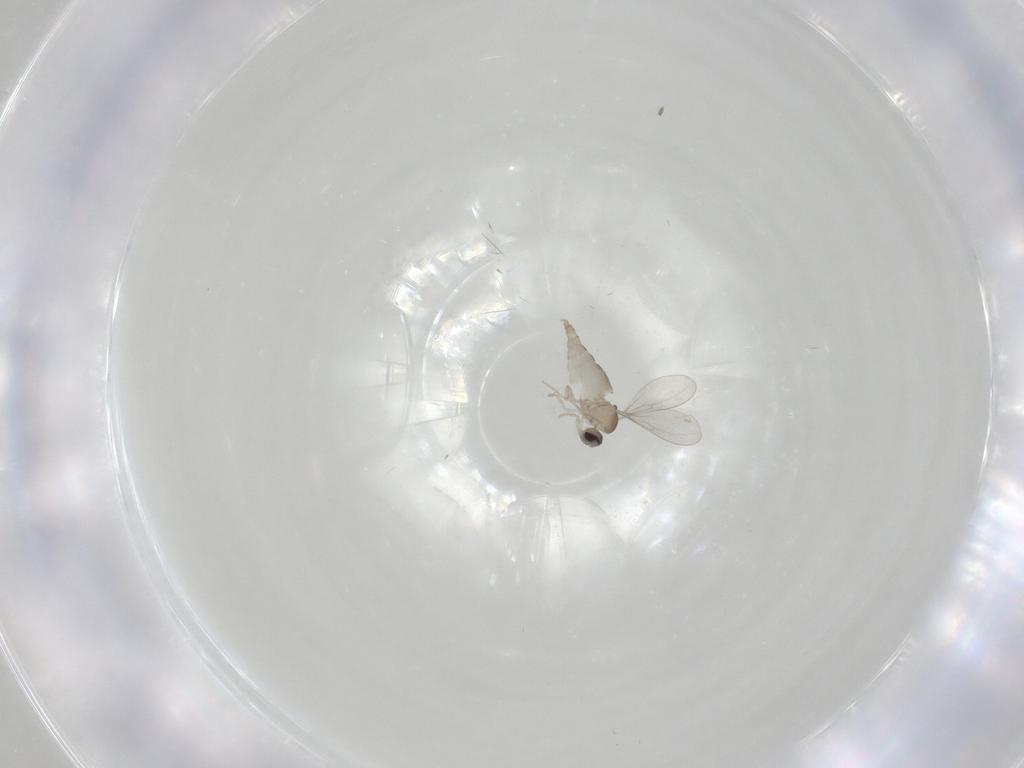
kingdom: Animalia
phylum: Arthropoda
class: Insecta
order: Diptera
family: Cecidomyiidae
